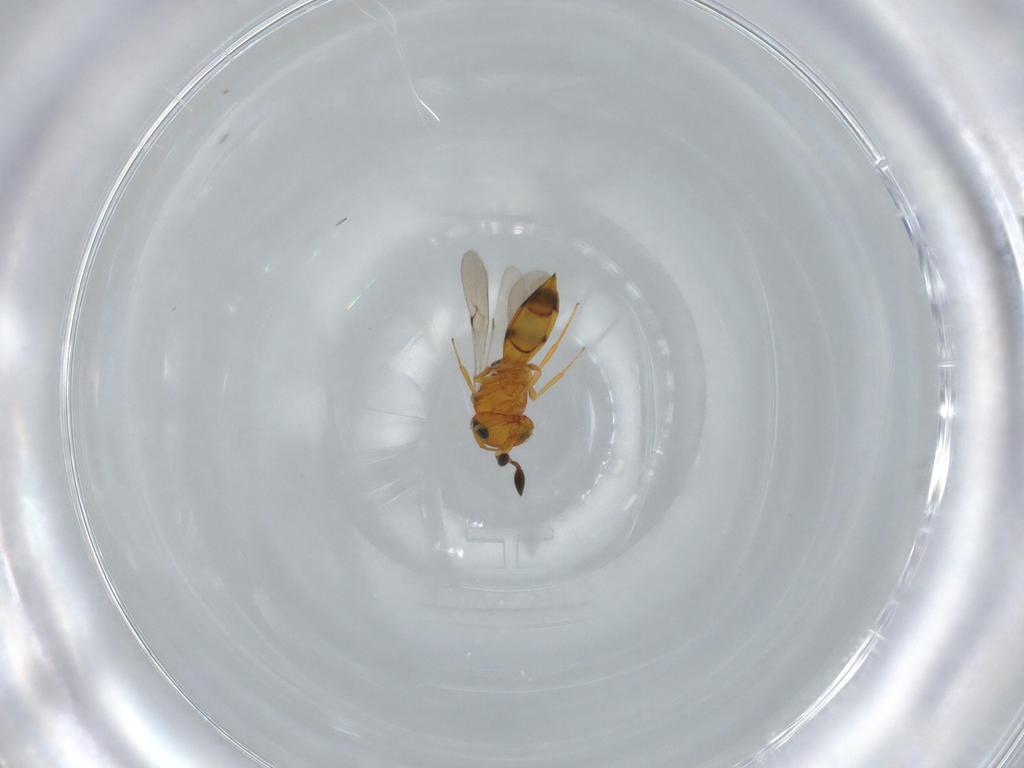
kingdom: Animalia
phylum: Arthropoda
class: Insecta
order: Hymenoptera
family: Scelionidae
